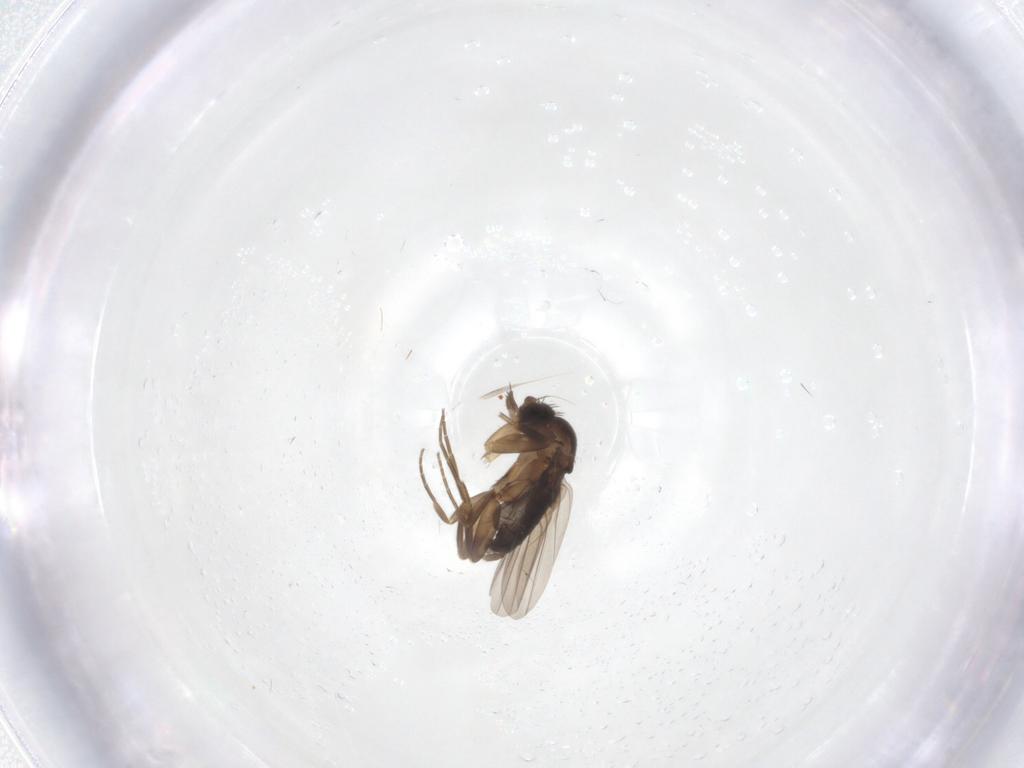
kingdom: Animalia
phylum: Arthropoda
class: Insecta
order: Diptera
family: Phoridae
